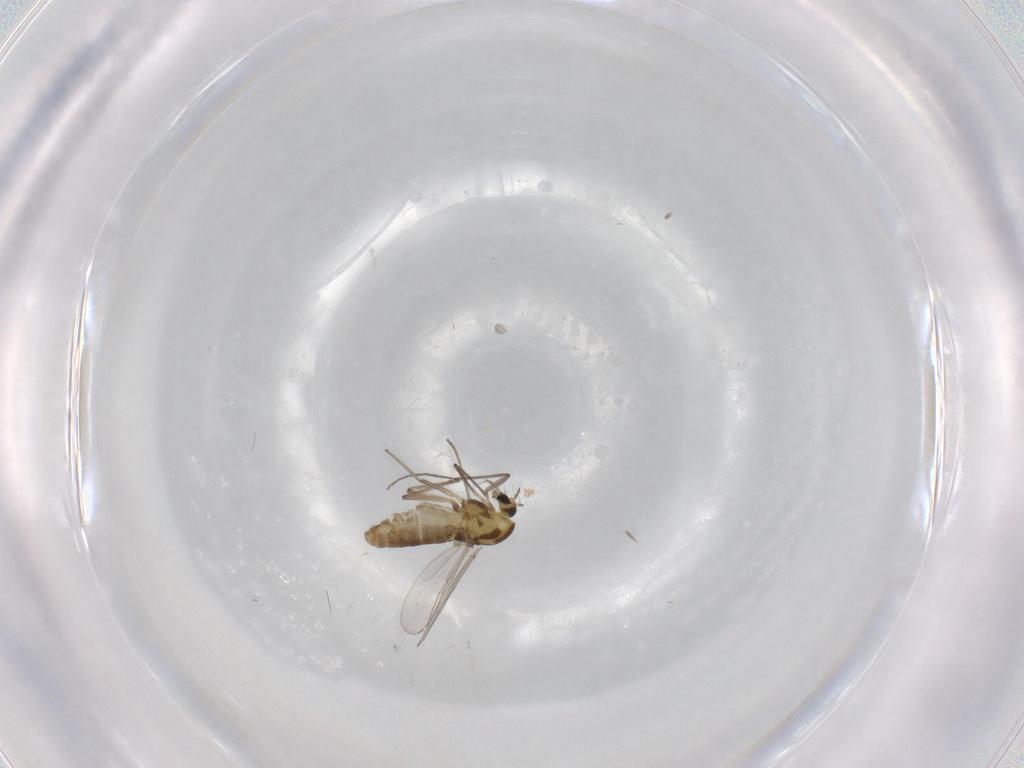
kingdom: Animalia
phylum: Arthropoda
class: Insecta
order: Diptera
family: Chironomidae
